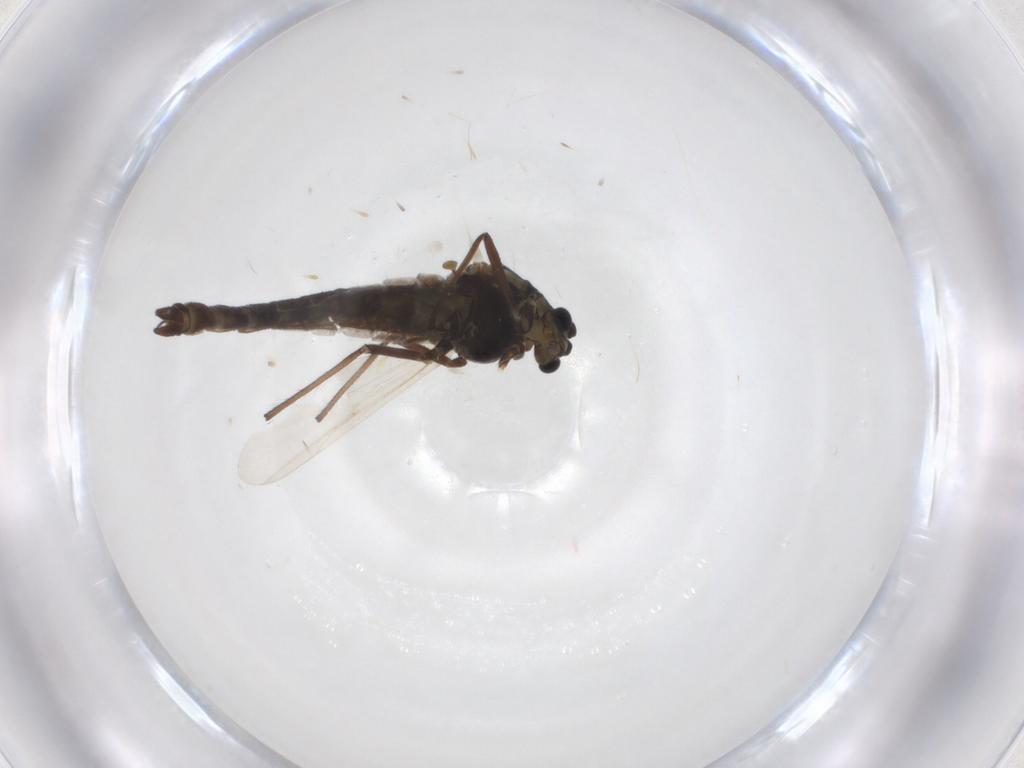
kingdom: Animalia
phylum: Arthropoda
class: Insecta
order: Diptera
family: Chironomidae
